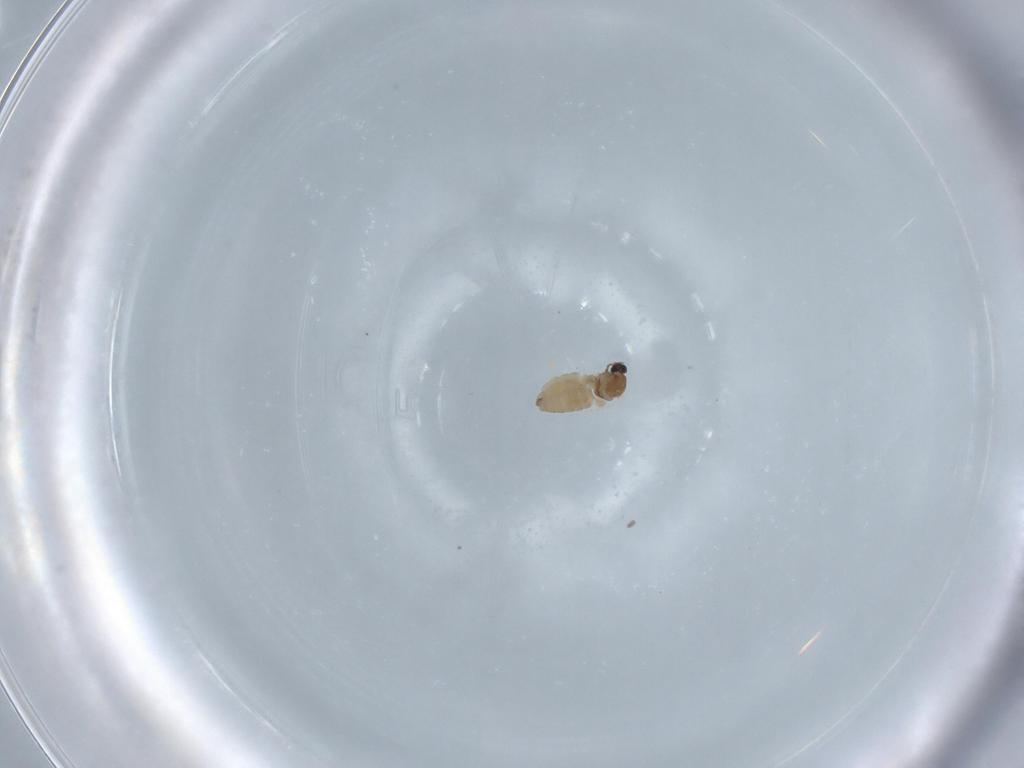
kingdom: Animalia
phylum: Arthropoda
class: Insecta
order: Diptera
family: Cecidomyiidae
